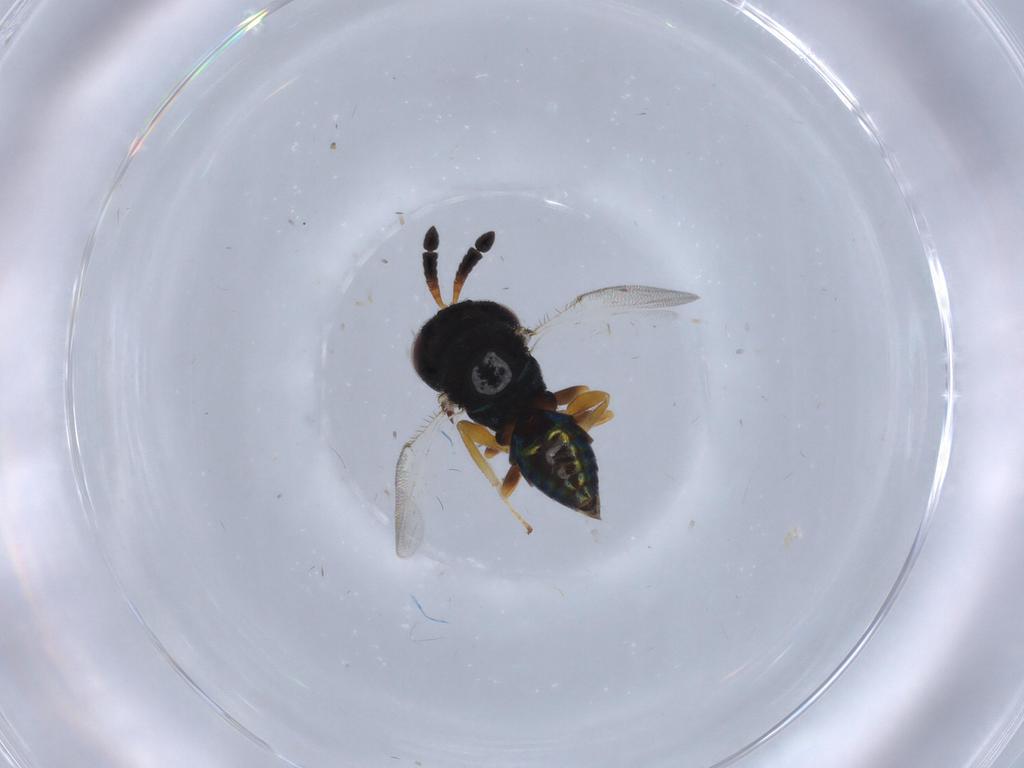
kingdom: Animalia
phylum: Arthropoda
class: Insecta
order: Hymenoptera
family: Agaonidae
